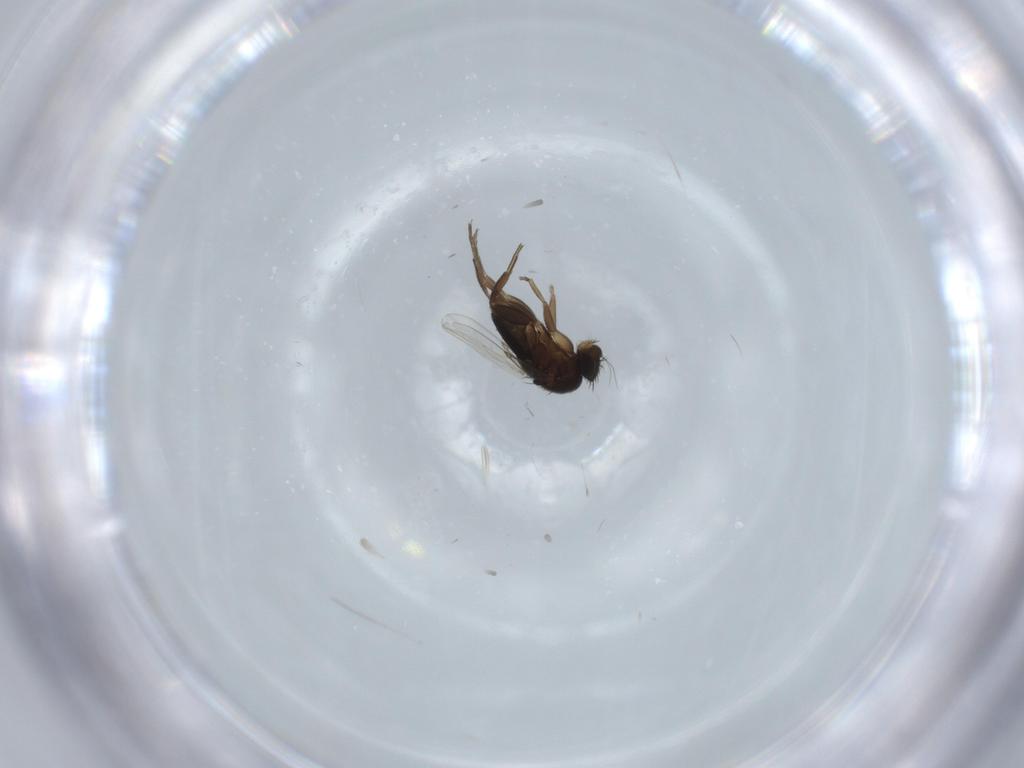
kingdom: Animalia
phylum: Arthropoda
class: Insecta
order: Diptera
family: Phoridae
